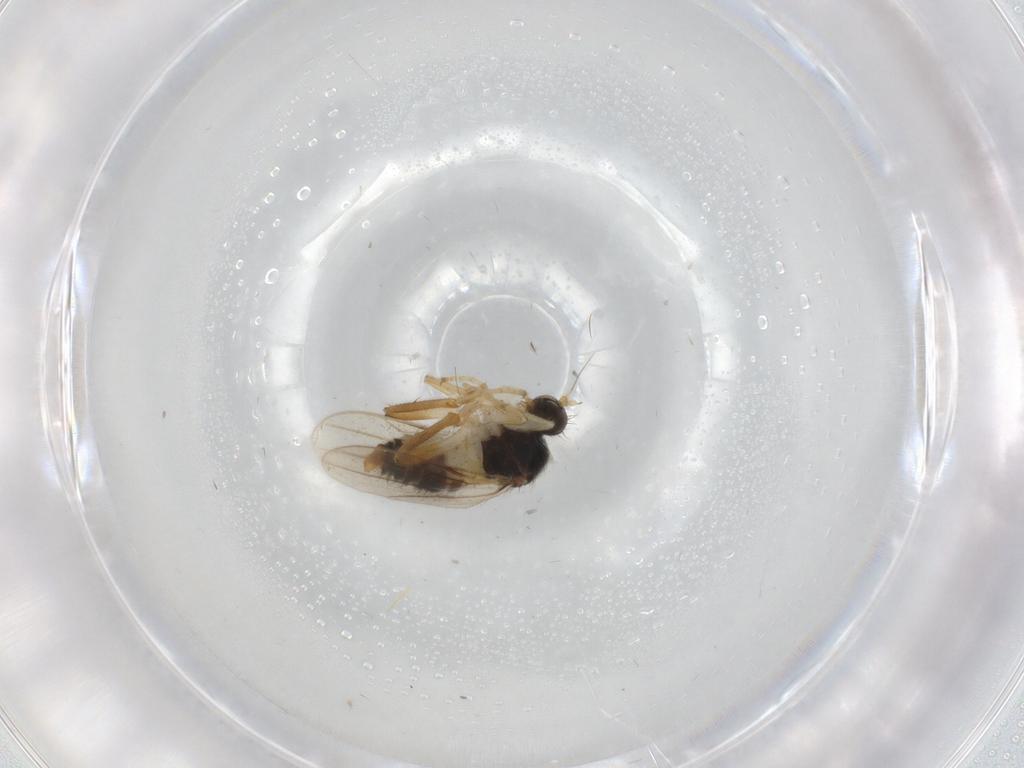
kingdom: Animalia
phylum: Arthropoda
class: Insecta
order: Diptera
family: Hybotidae
